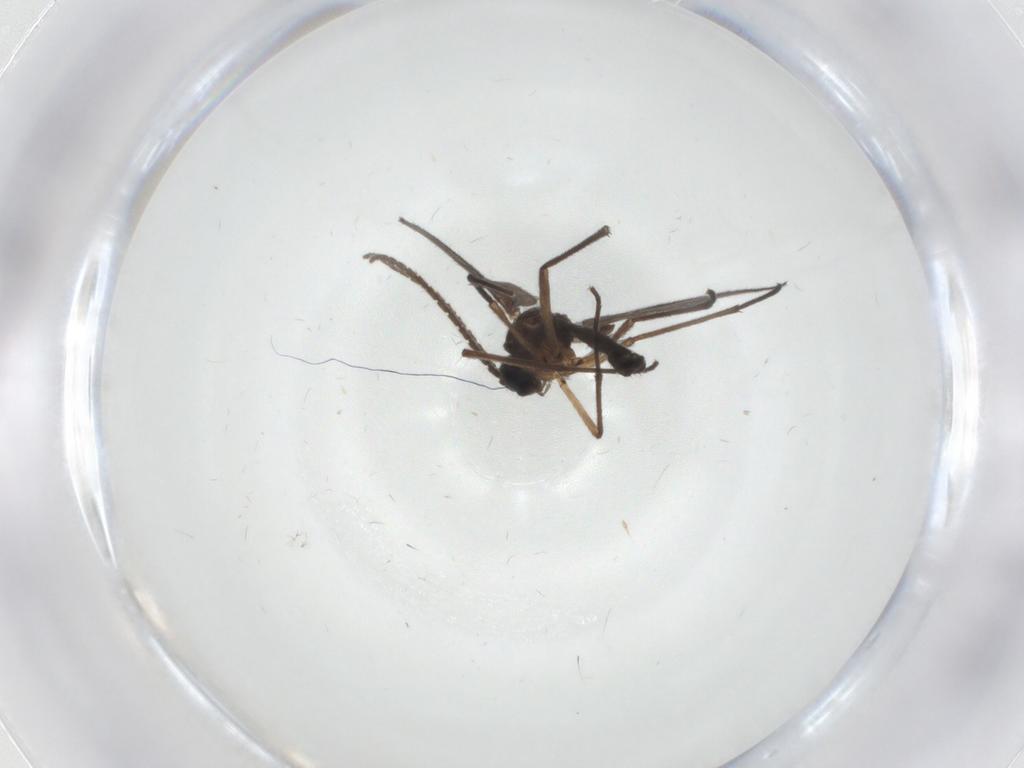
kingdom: Animalia
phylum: Arthropoda
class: Insecta
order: Diptera
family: Sciaridae
